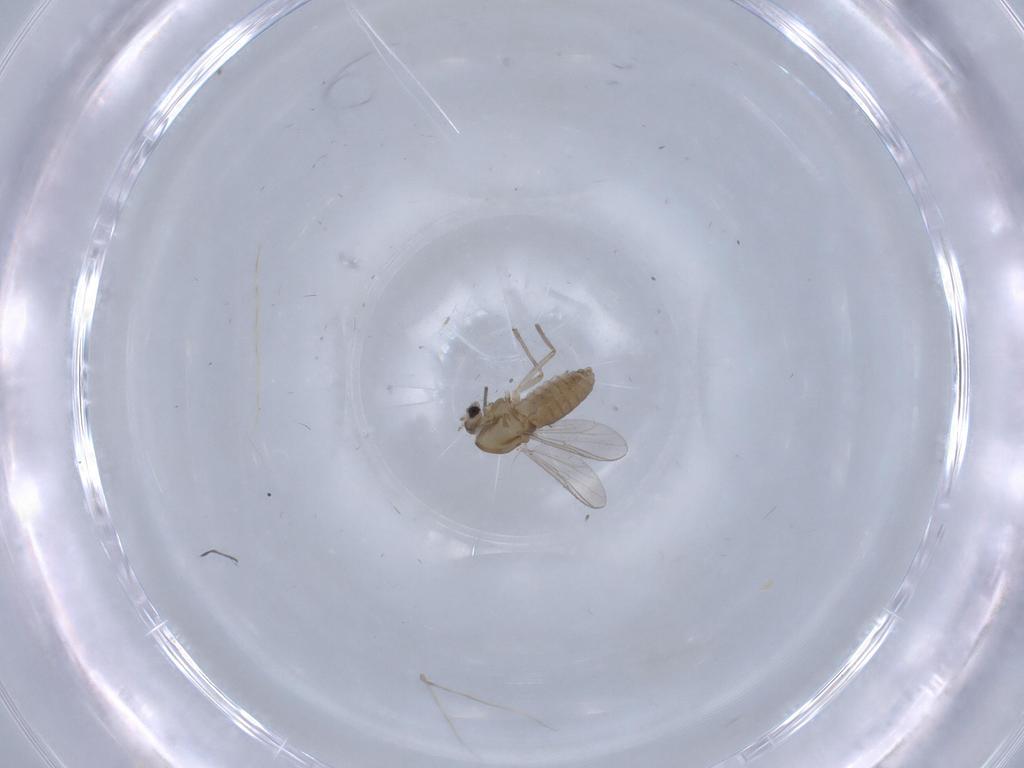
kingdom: Animalia
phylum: Arthropoda
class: Insecta
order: Diptera
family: Chironomidae
